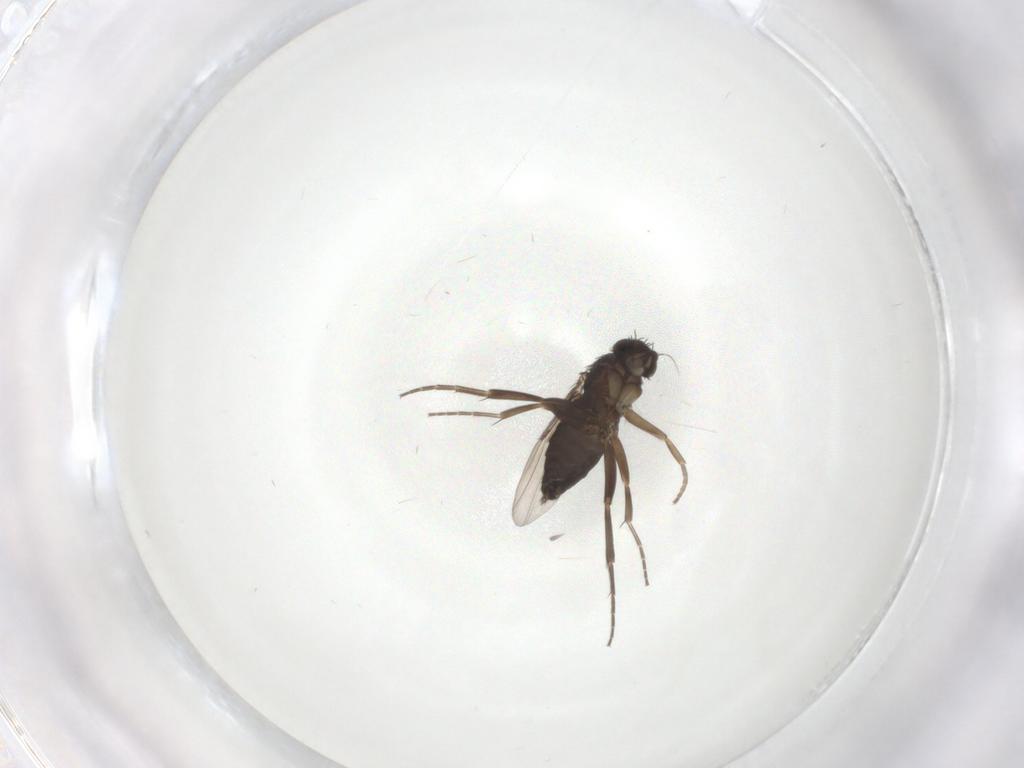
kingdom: Animalia
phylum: Arthropoda
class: Insecta
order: Diptera
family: Phoridae
